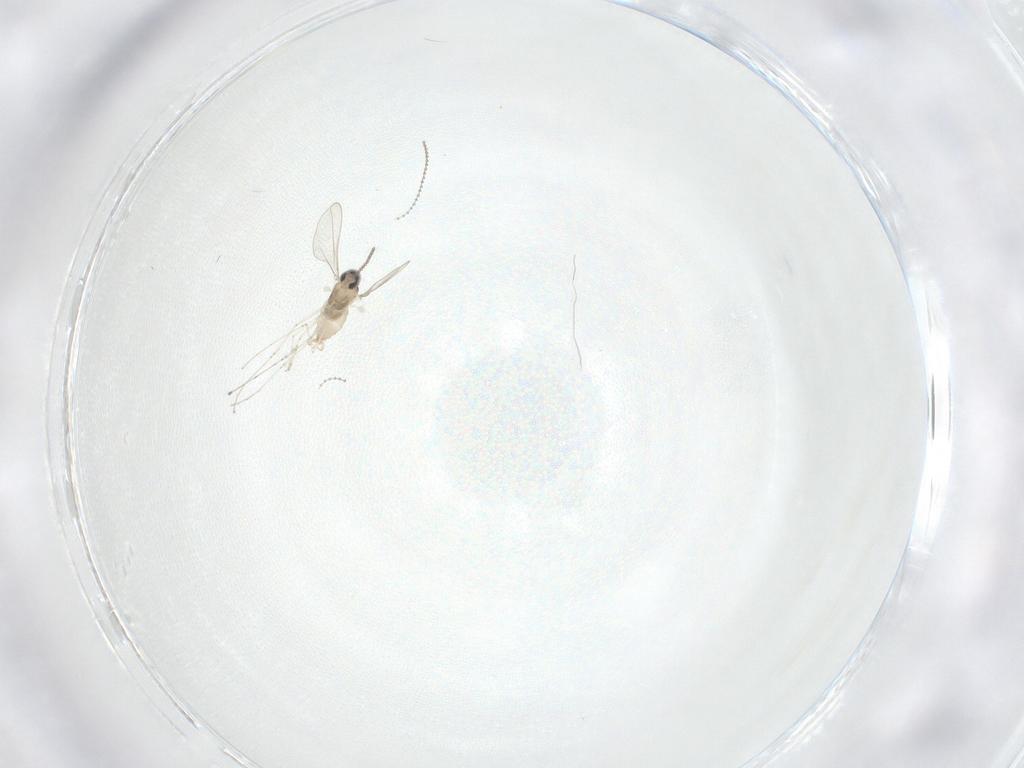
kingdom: Animalia
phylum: Arthropoda
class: Insecta
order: Diptera
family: Cecidomyiidae
